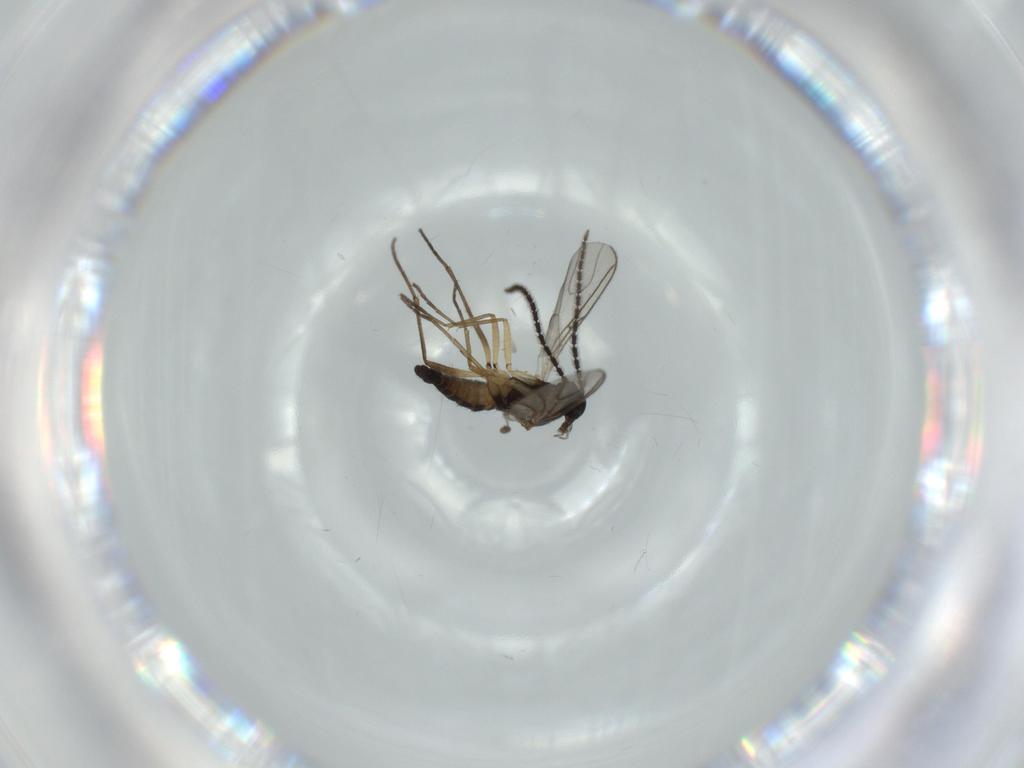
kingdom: Animalia
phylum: Arthropoda
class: Insecta
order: Diptera
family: Sciaridae
